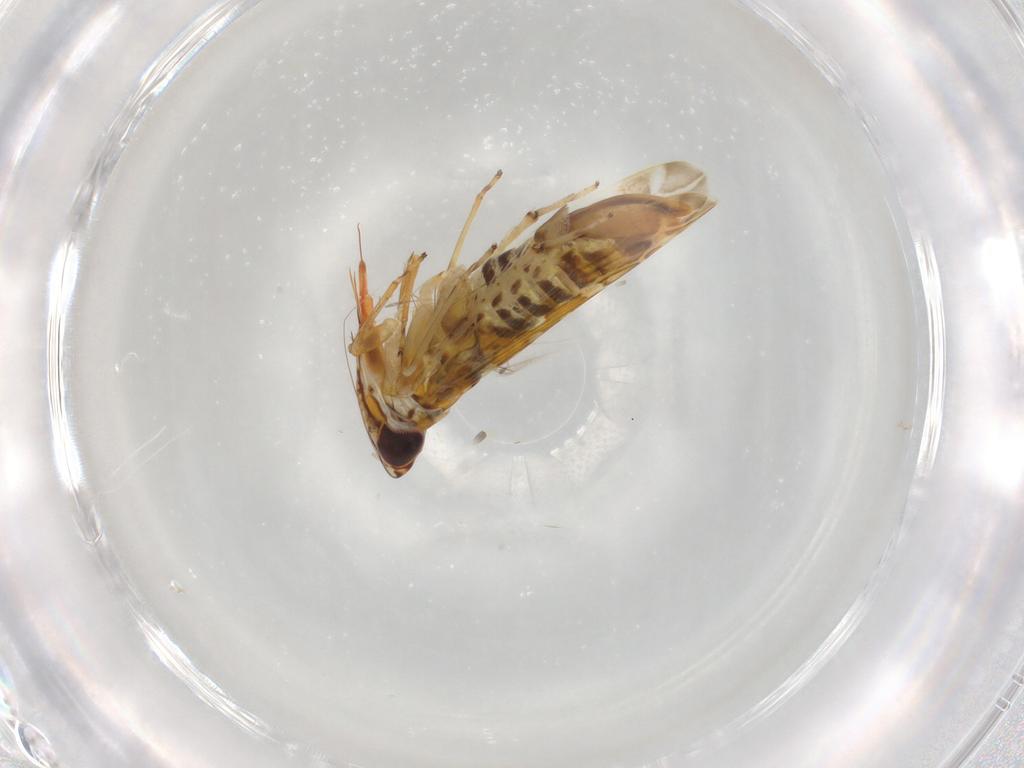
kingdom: Animalia
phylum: Arthropoda
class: Insecta
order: Hemiptera
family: Cicadellidae
